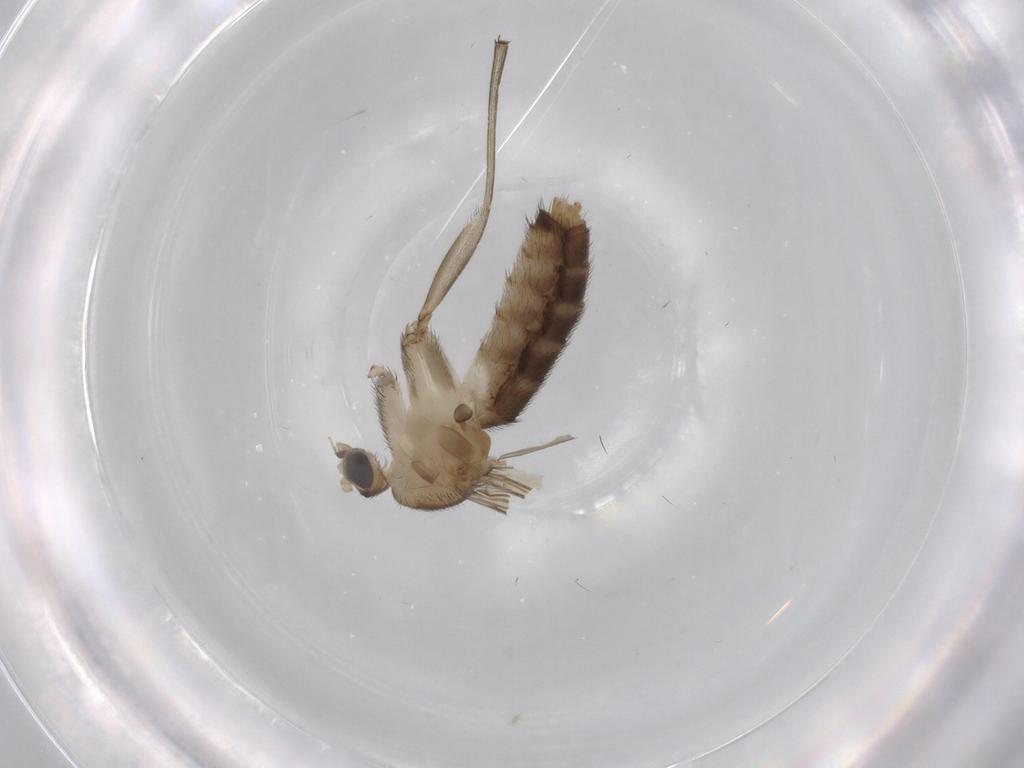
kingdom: Animalia
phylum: Arthropoda
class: Insecta
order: Diptera
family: Mycetophilidae
